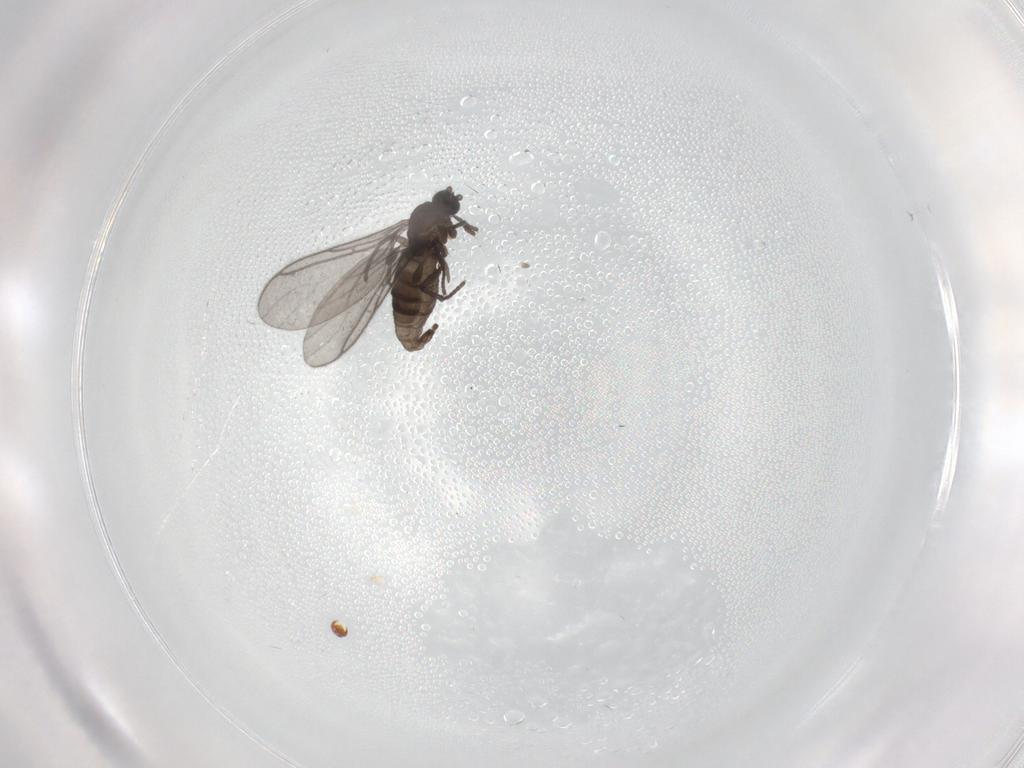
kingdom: Animalia
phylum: Arthropoda
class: Insecta
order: Diptera
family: Sciaridae
